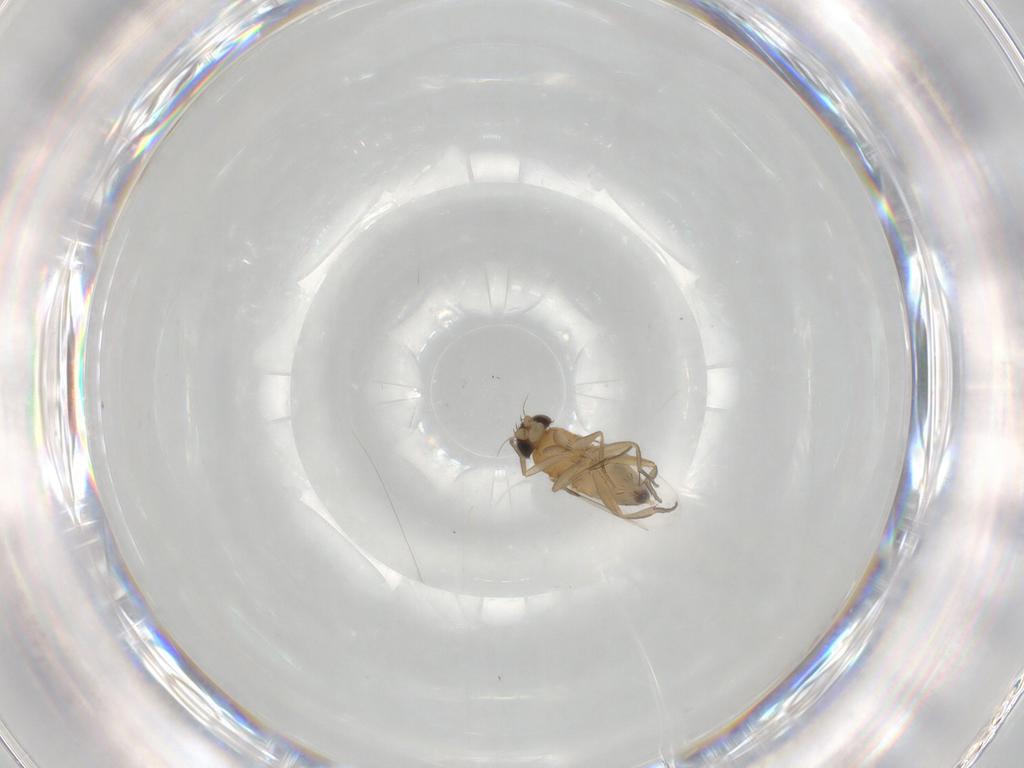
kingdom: Animalia
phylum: Arthropoda
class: Insecta
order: Diptera
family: Phoridae
